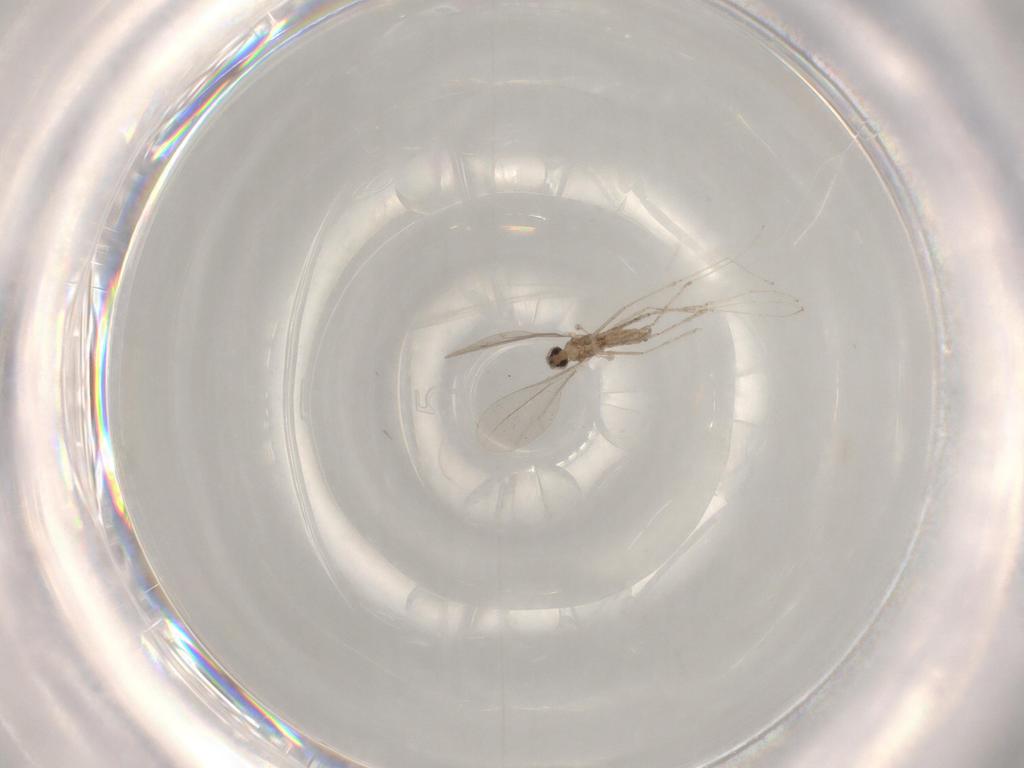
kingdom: Animalia
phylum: Arthropoda
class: Insecta
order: Diptera
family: Cecidomyiidae
